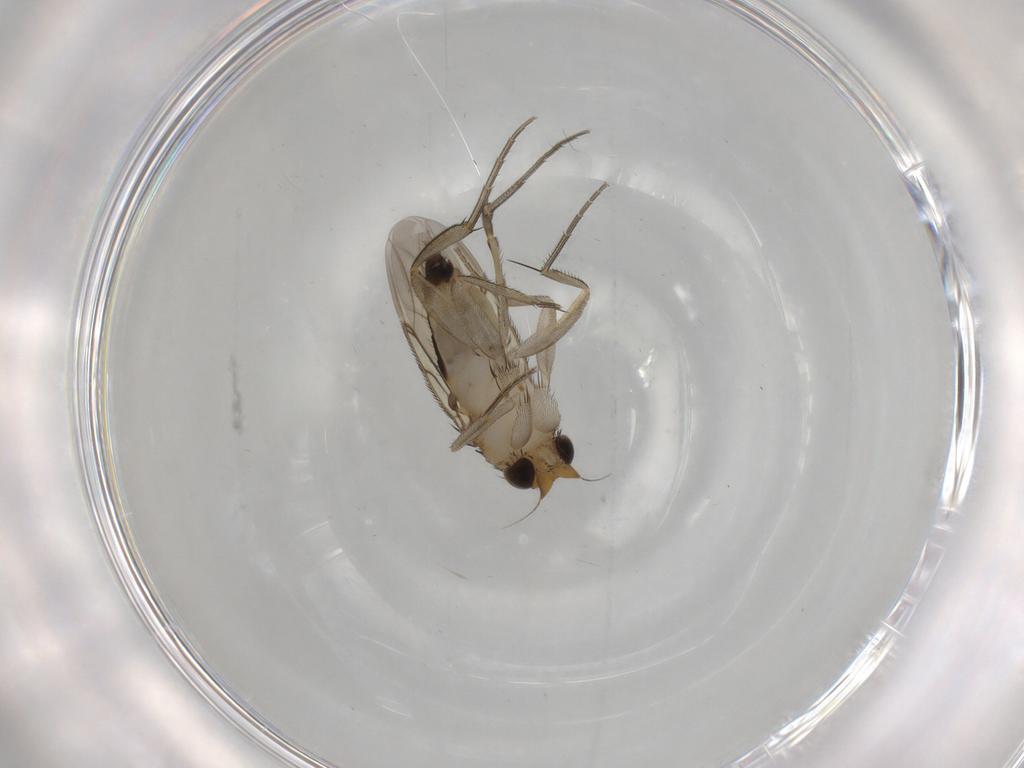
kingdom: Animalia
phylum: Arthropoda
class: Insecta
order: Diptera
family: Phoridae
